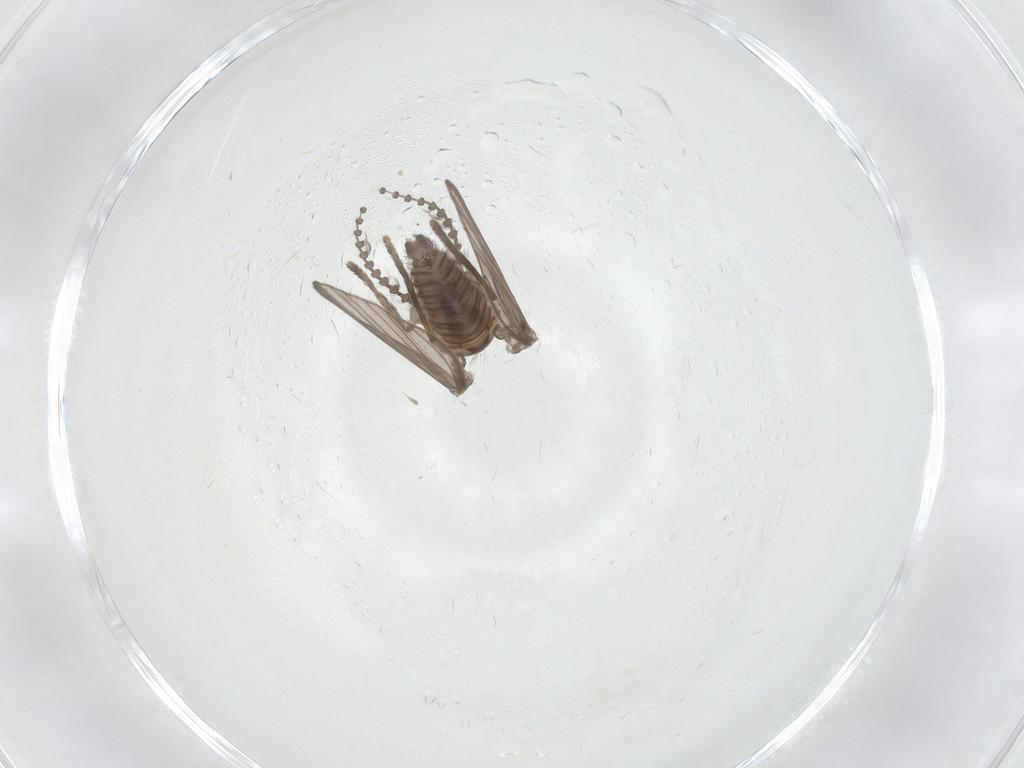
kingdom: Animalia
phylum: Arthropoda
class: Insecta
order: Diptera
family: Psychodidae
